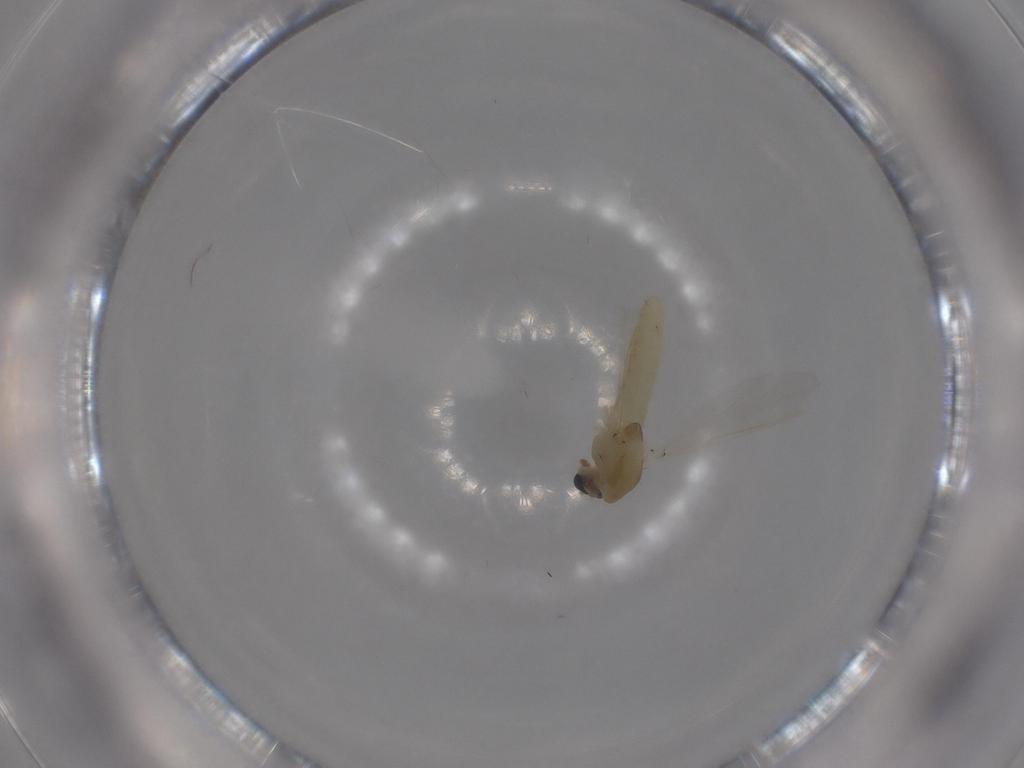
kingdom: Animalia
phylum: Arthropoda
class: Insecta
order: Diptera
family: Chironomidae
